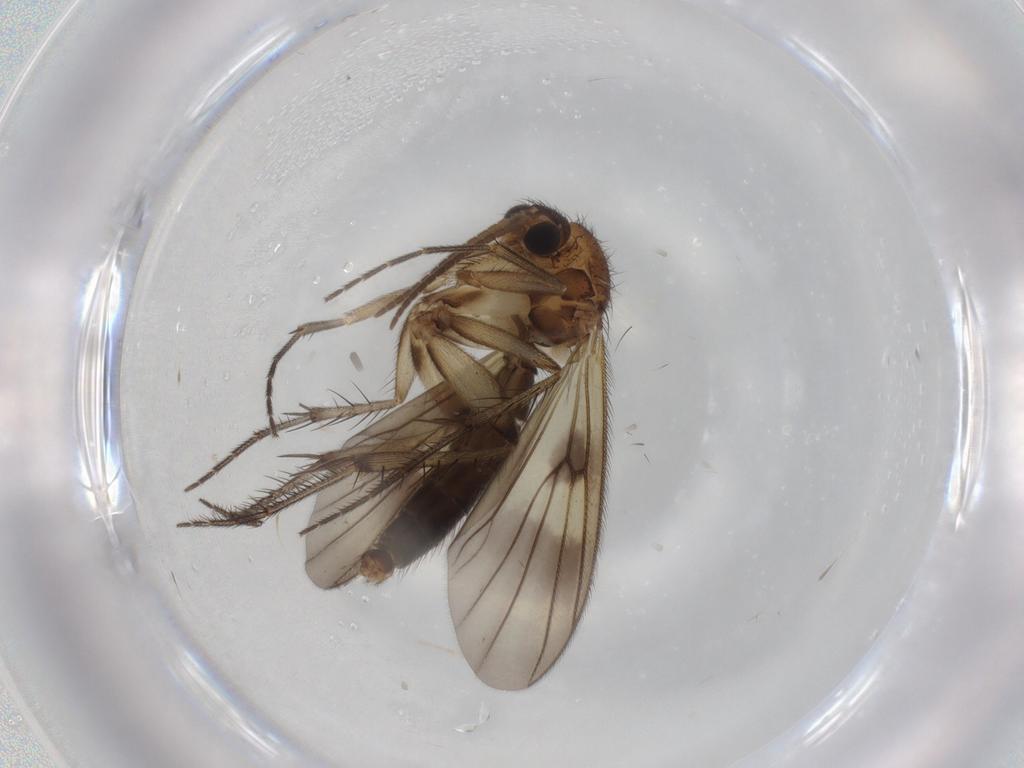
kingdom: Animalia
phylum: Arthropoda
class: Insecta
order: Diptera
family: Mycetophilidae
